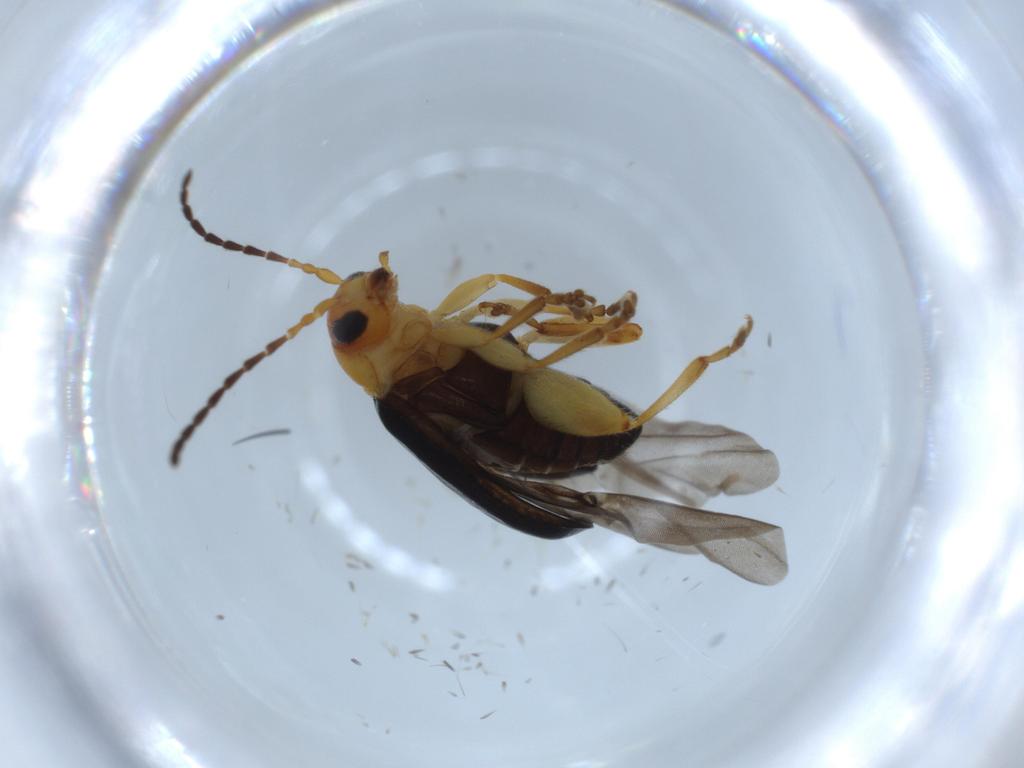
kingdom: Animalia
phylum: Arthropoda
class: Insecta
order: Coleoptera
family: Chrysomelidae
